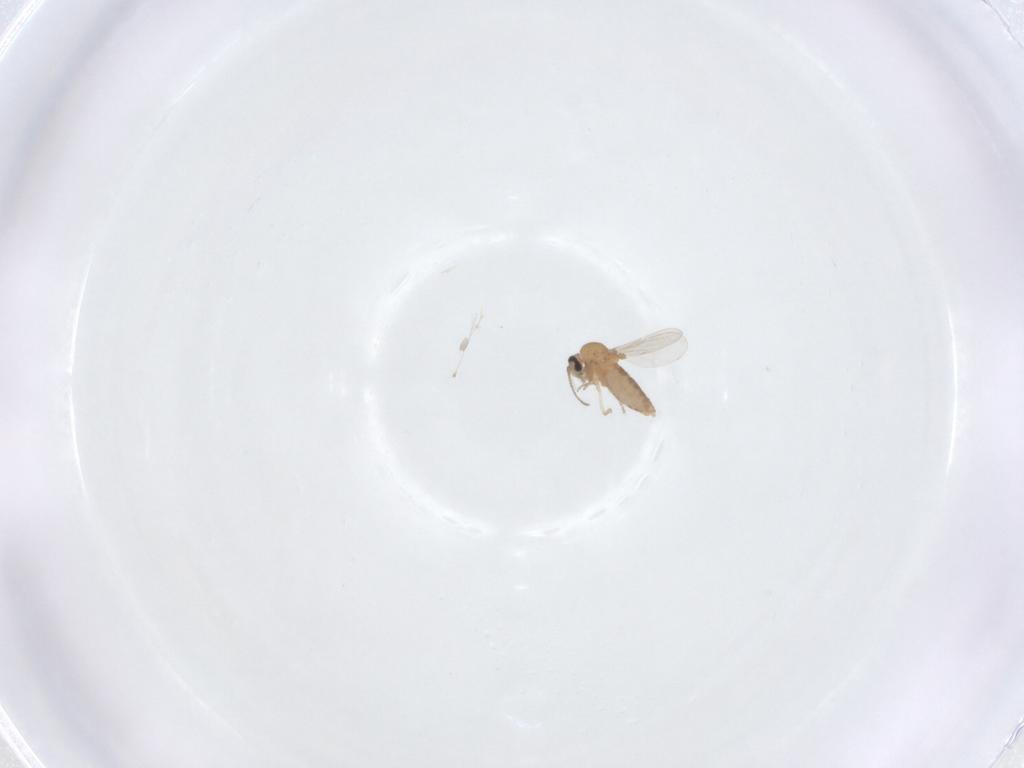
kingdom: Animalia
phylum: Arthropoda
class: Insecta
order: Diptera
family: Ceratopogonidae
